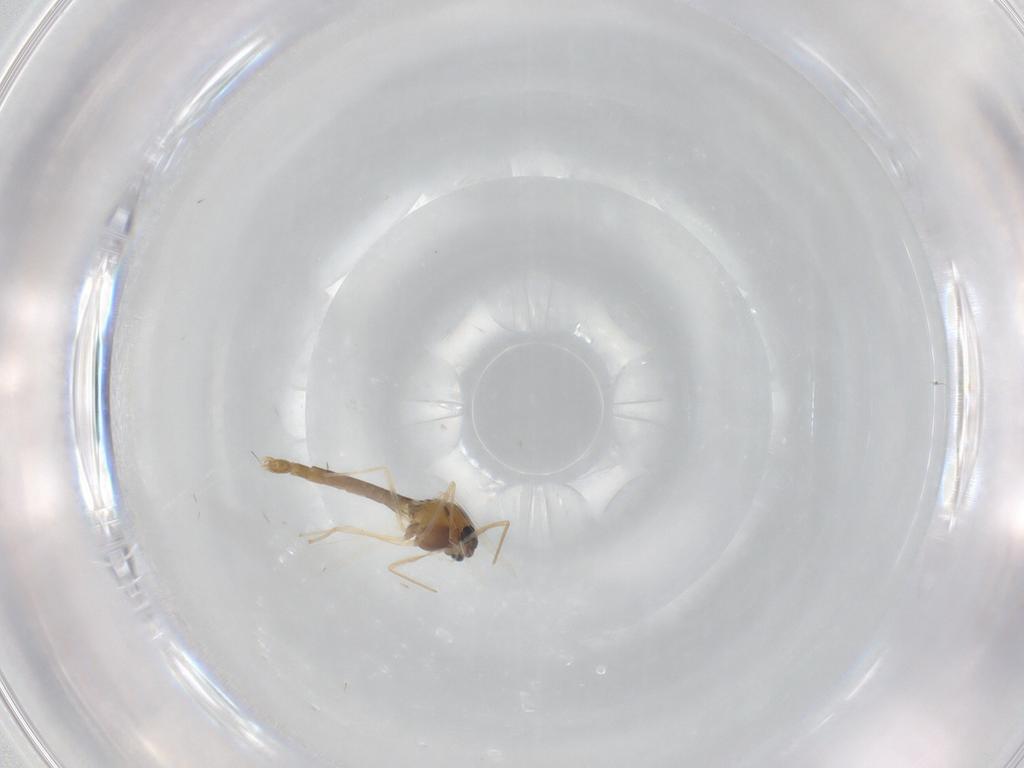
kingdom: Animalia
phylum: Arthropoda
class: Insecta
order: Diptera
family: Chironomidae
